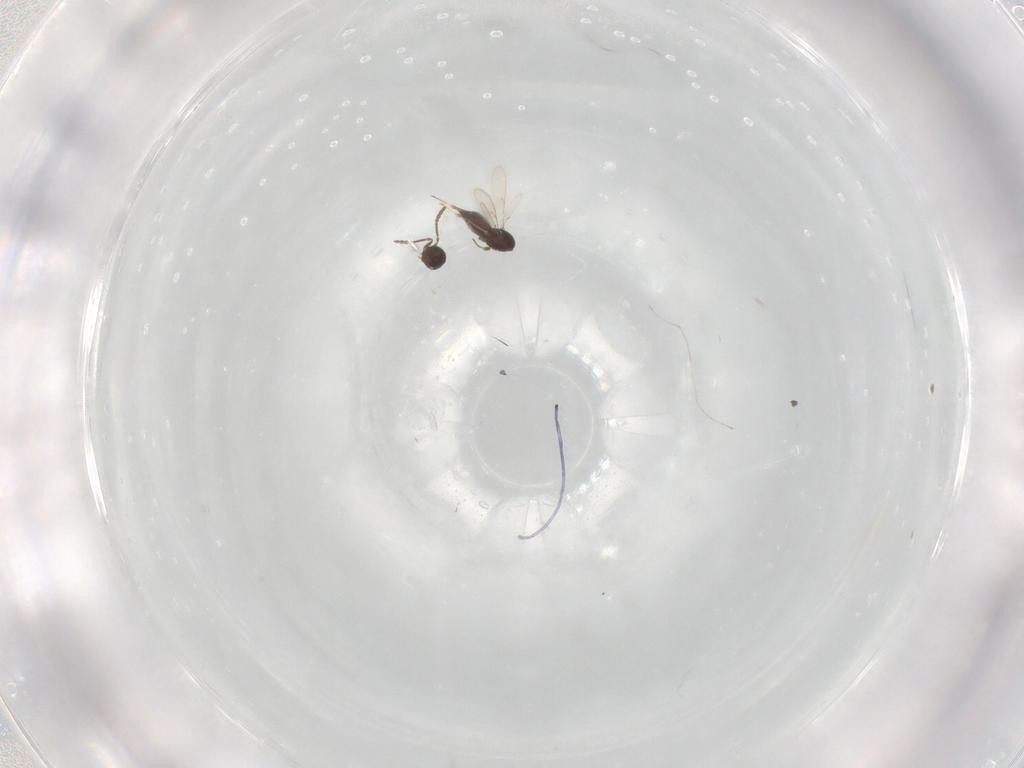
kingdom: Animalia
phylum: Arthropoda
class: Insecta
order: Hymenoptera
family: Scelionidae
